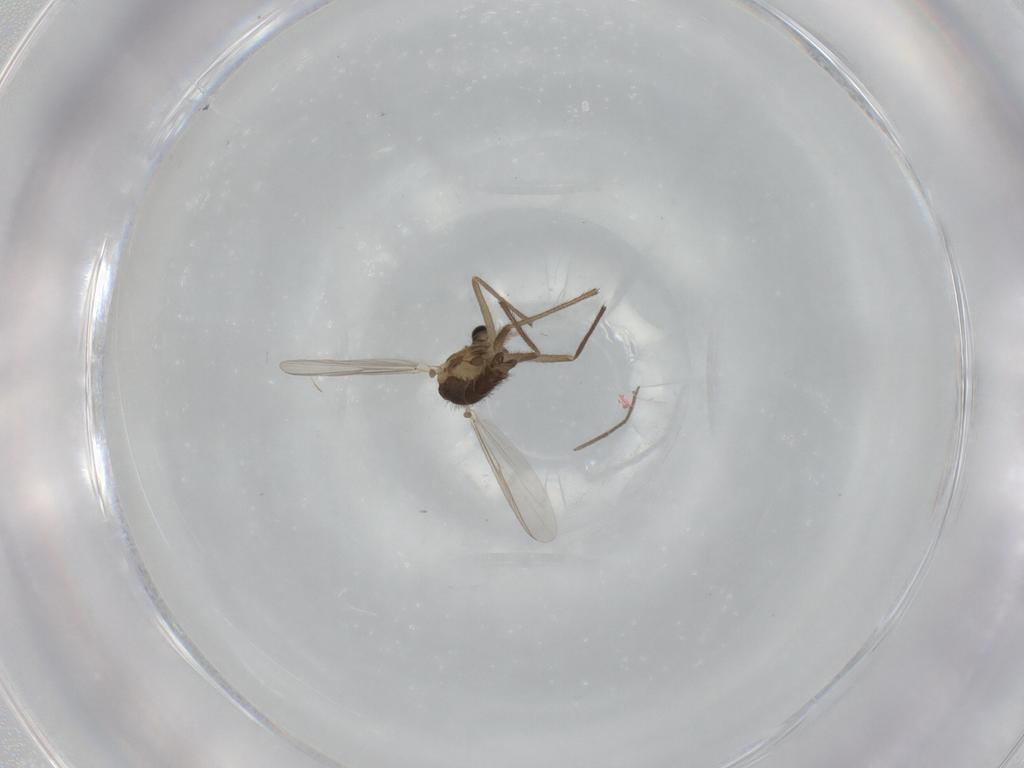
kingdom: Animalia
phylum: Arthropoda
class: Insecta
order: Diptera
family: Chironomidae
